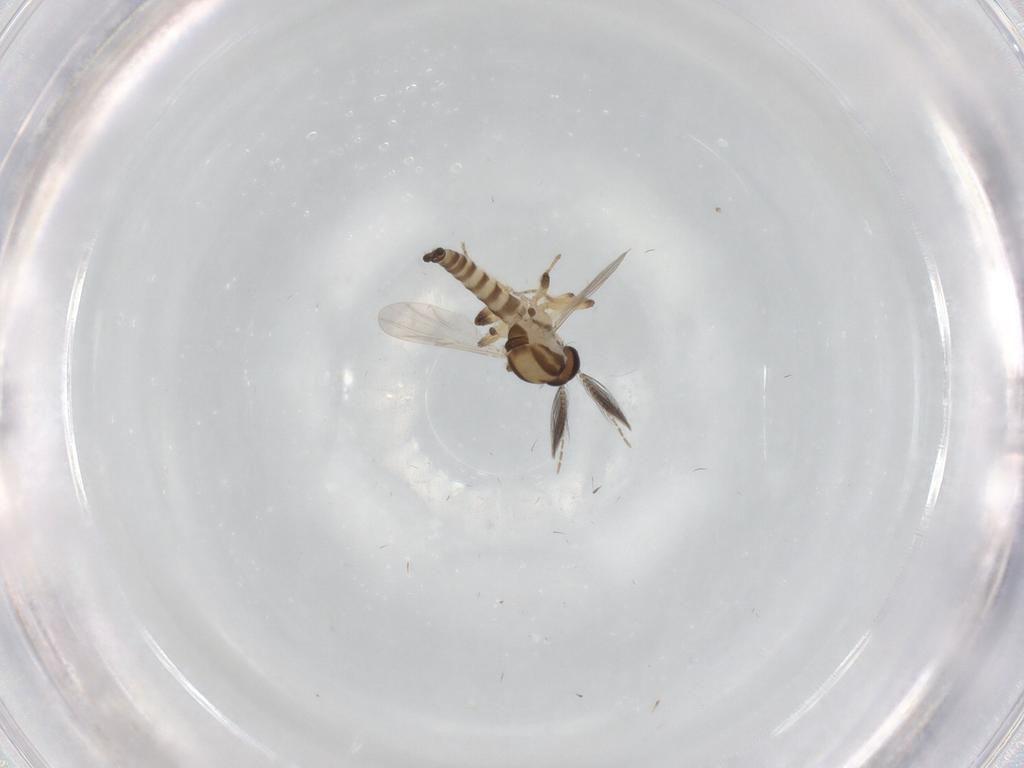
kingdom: Animalia
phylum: Arthropoda
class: Insecta
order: Diptera
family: Ceratopogonidae
